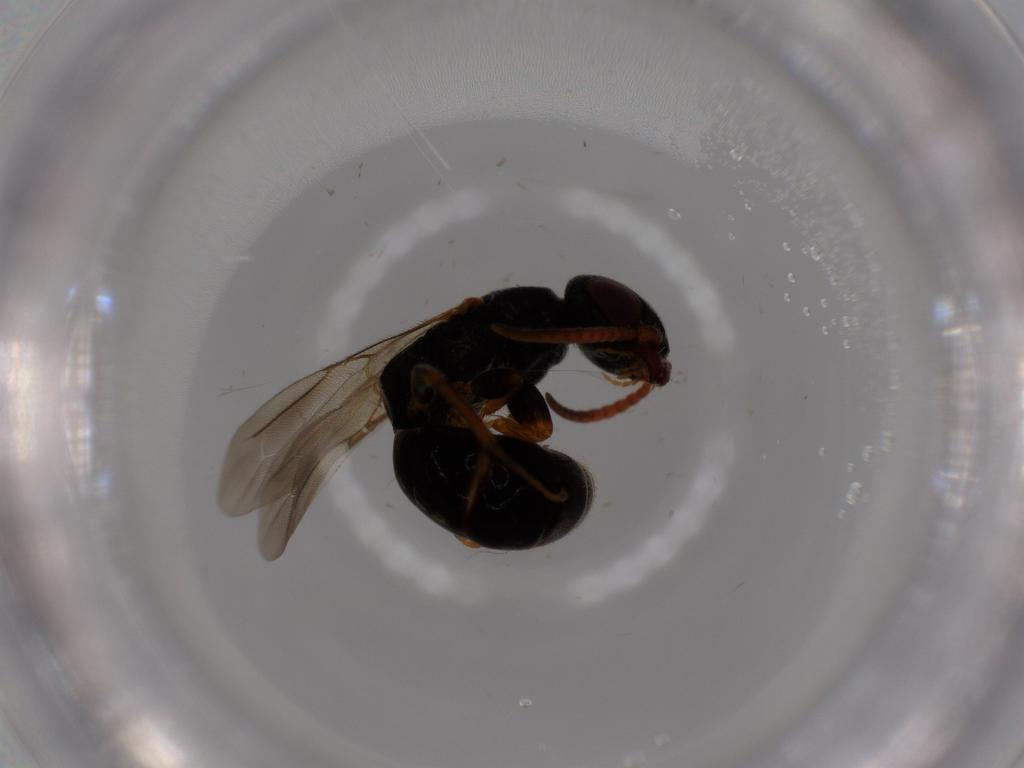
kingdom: Animalia
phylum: Arthropoda
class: Insecta
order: Hymenoptera
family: Bethylidae
